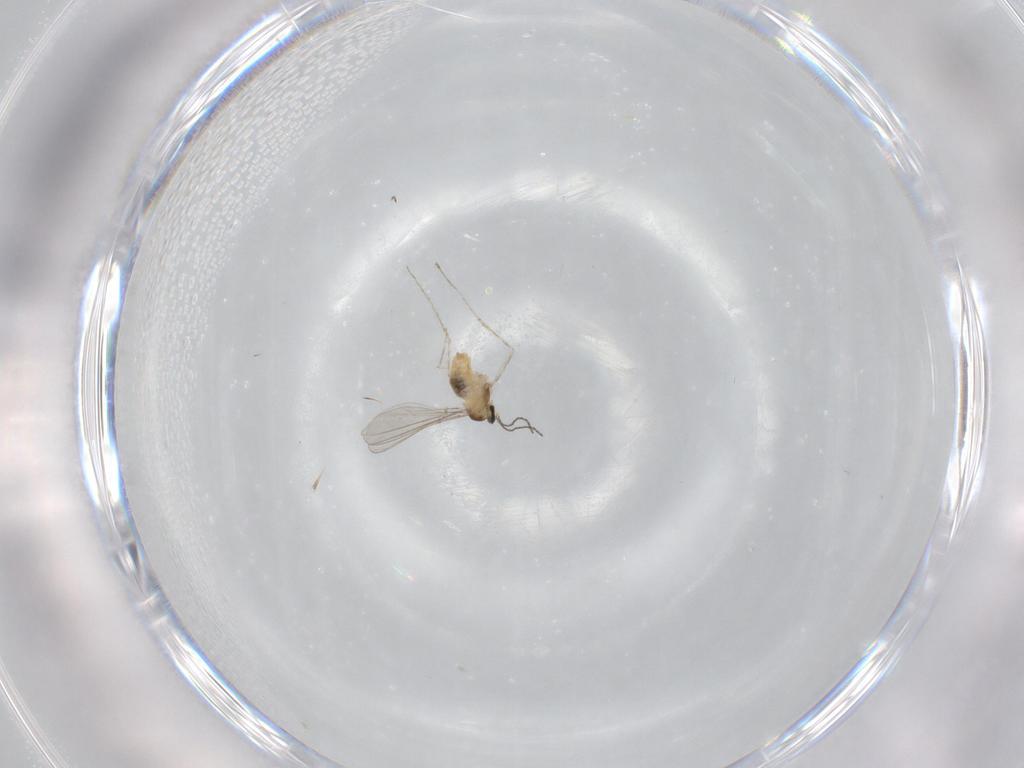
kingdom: Animalia
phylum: Arthropoda
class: Insecta
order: Diptera
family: Cecidomyiidae
